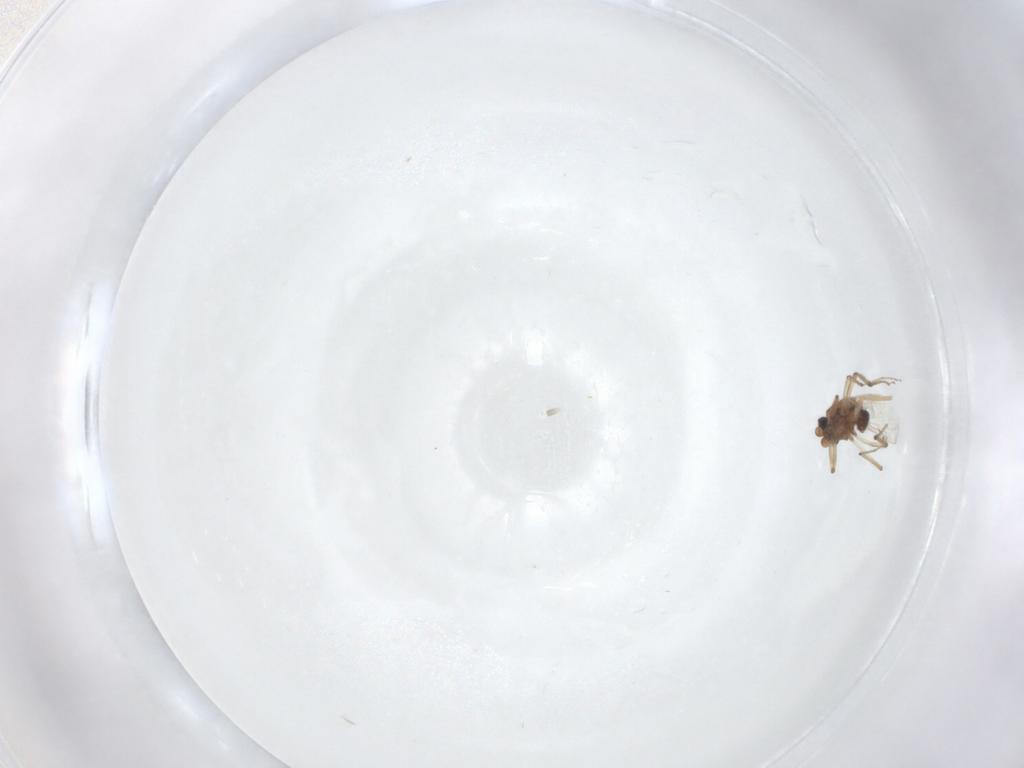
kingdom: Animalia
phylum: Arthropoda
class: Insecta
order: Diptera
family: Ceratopogonidae
